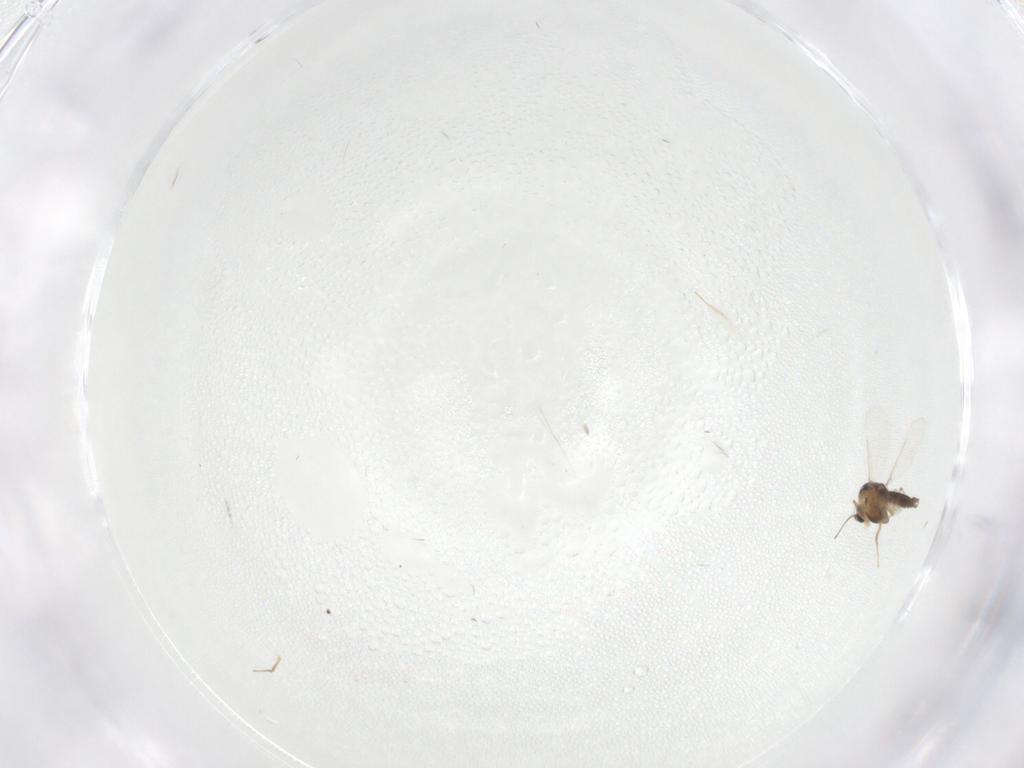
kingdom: Animalia
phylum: Arthropoda
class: Insecta
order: Diptera
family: Chironomidae
